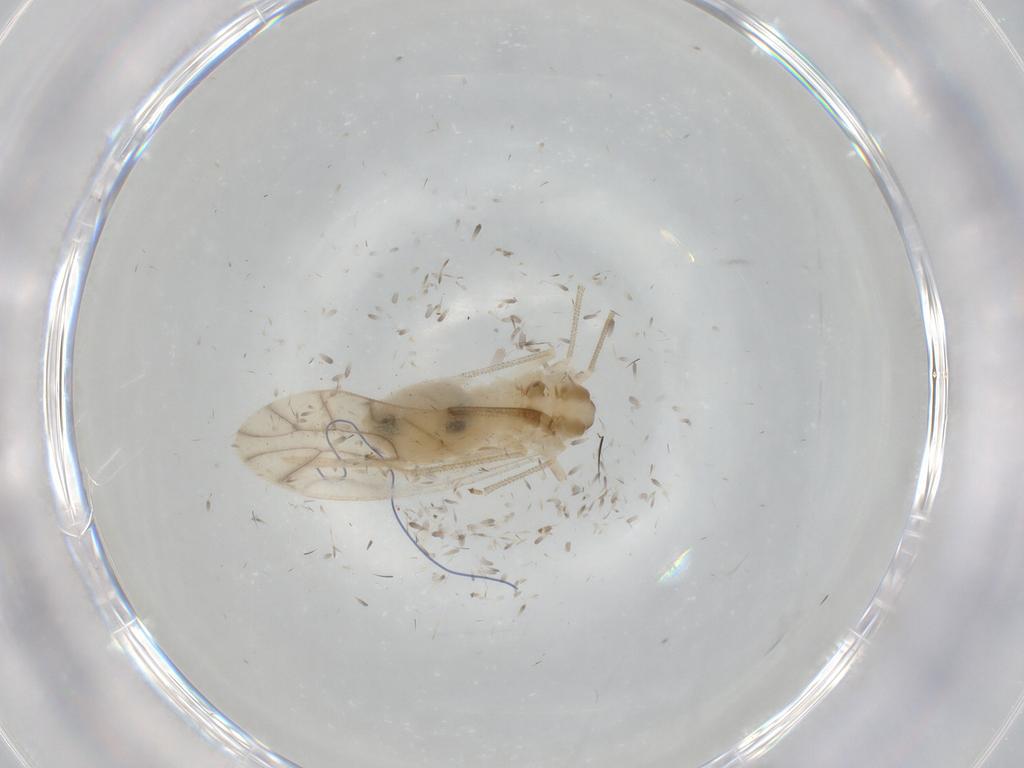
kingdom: Animalia
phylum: Arthropoda
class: Insecta
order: Psocodea
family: Caeciliusidae
